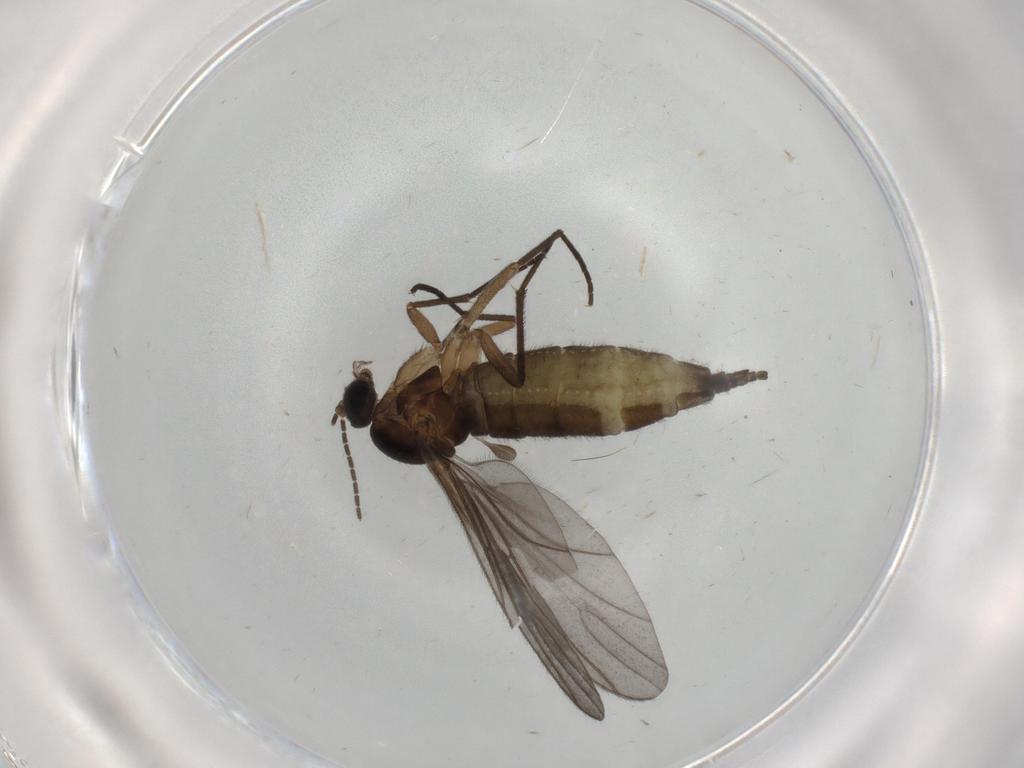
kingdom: Animalia
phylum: Arthropoda
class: Insecta
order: Diptera
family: Sciaridae
